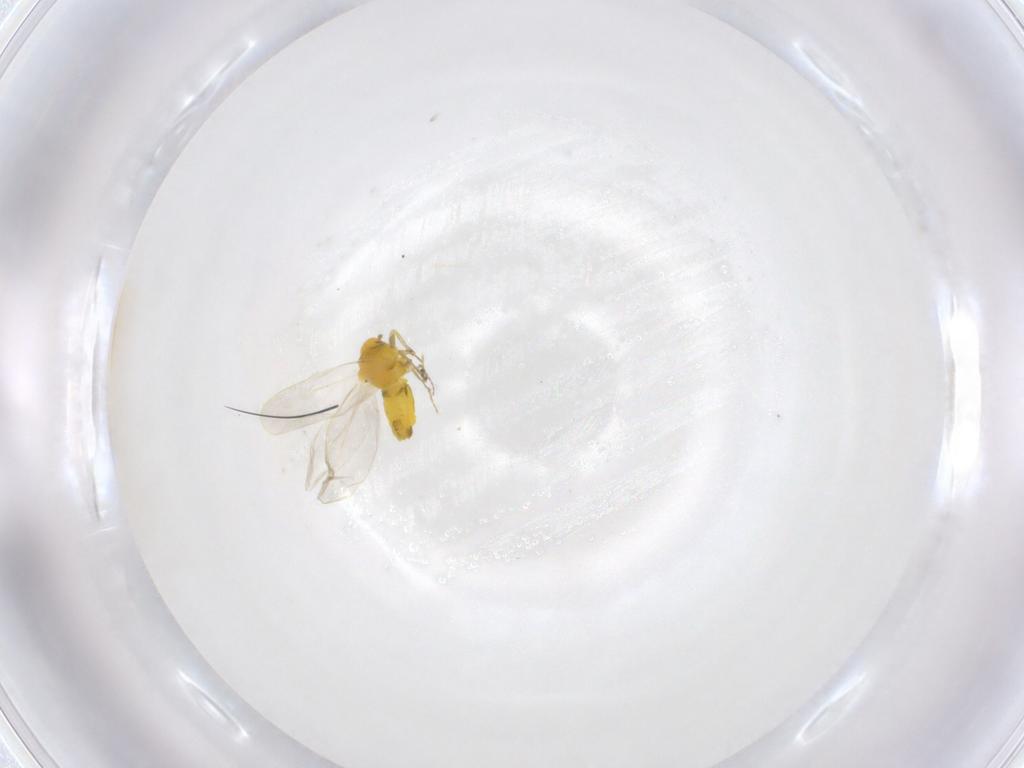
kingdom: Animalia
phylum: Arthropoda
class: Insecta
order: Hemiptera
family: Aleyrodidae
